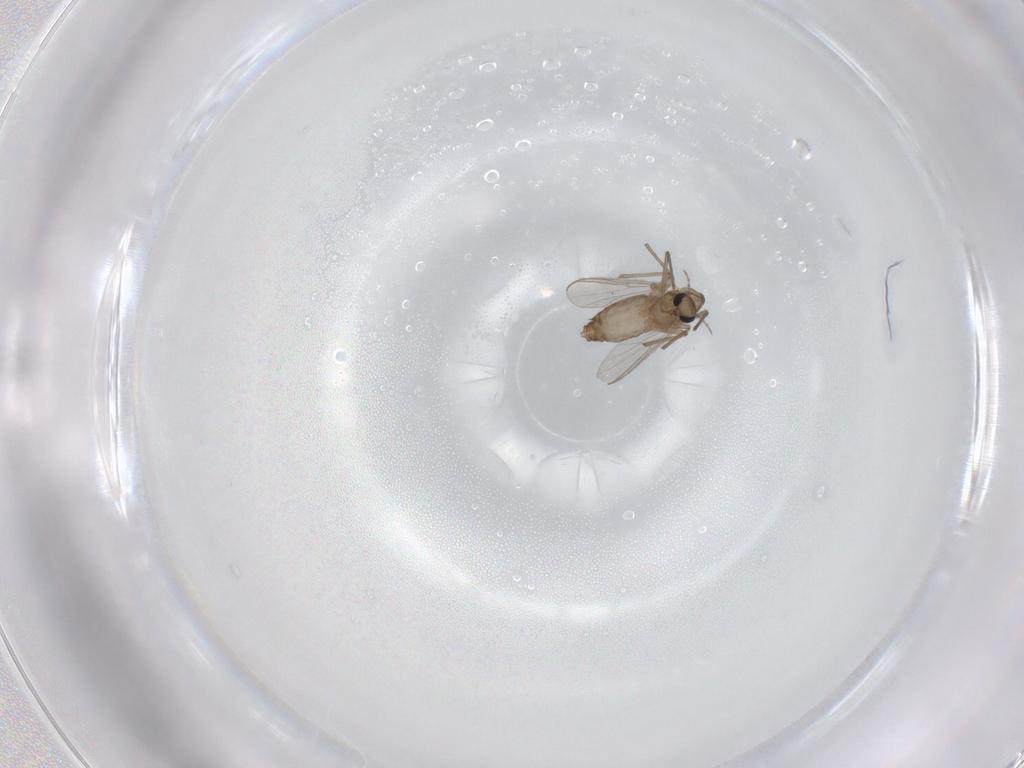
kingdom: Animalia
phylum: Arthropoda
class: Insecta
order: Diptera
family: Chironomidae
